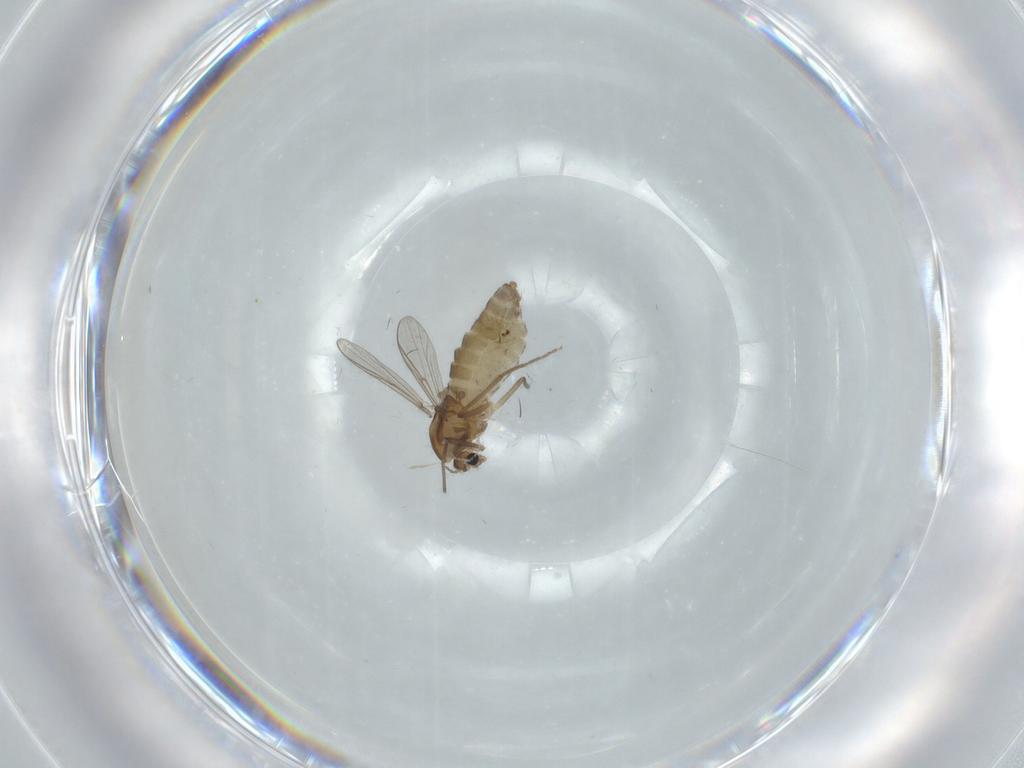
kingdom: Animalia
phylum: Arthropoda
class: Insecta
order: Diptera
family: Chironomidae
